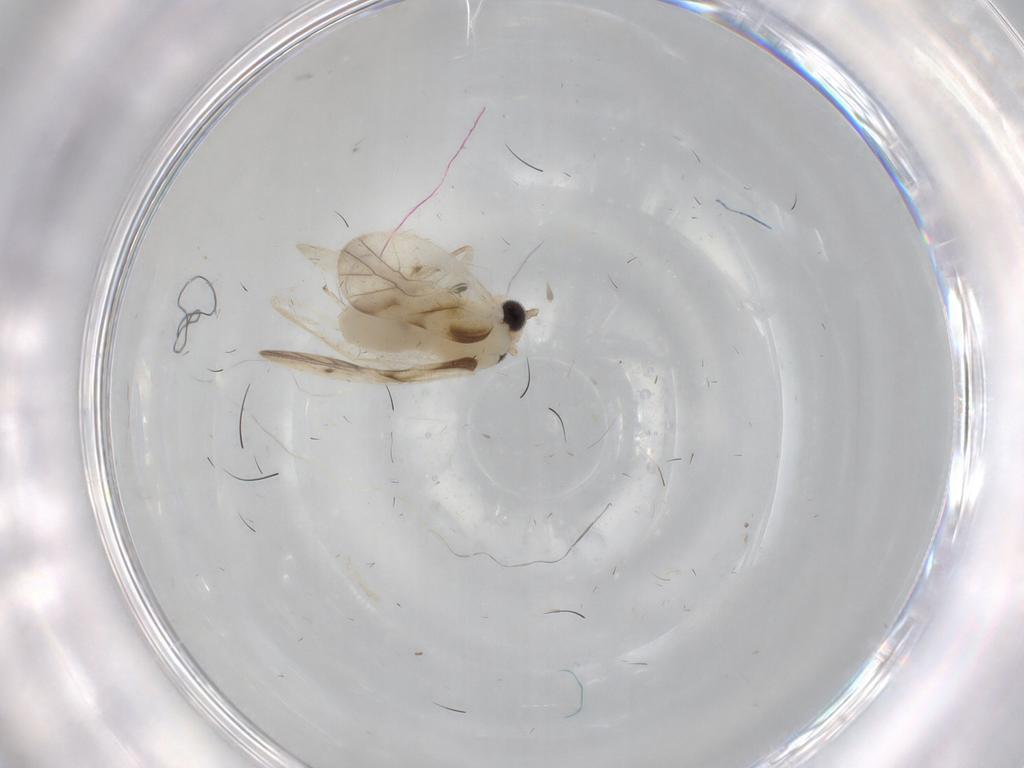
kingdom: Animalia
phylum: Arthropoda
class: Insecta
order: Psocodea
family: Caeciliusidae
